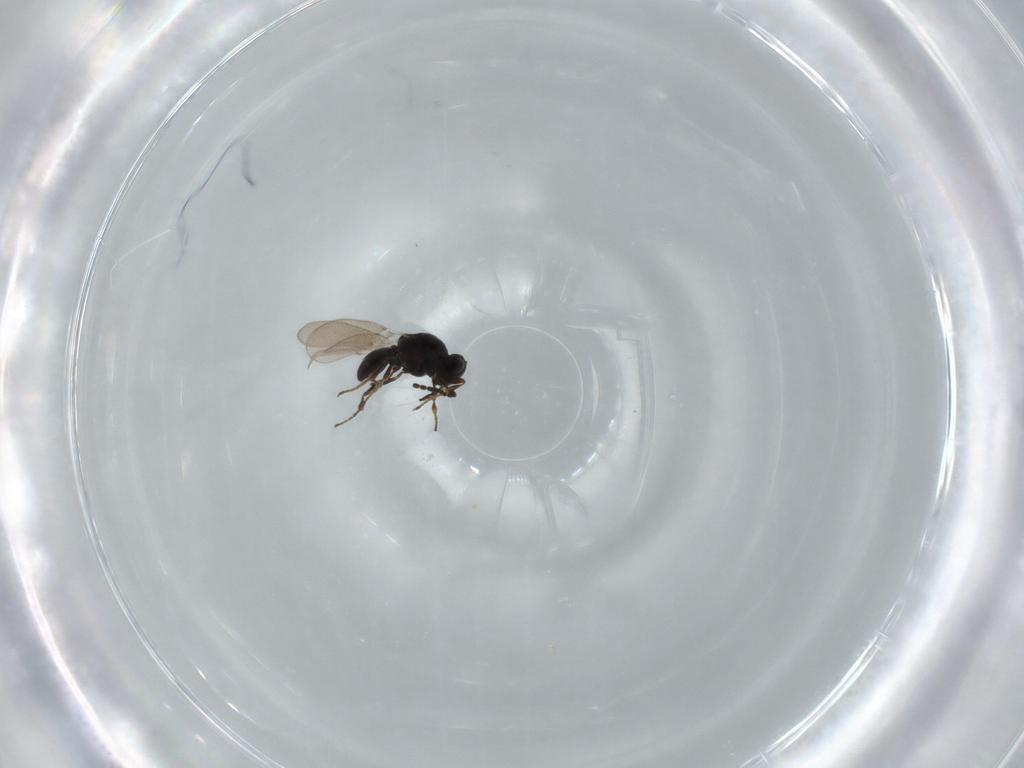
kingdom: Animalia
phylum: Arthropoda
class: Insecta
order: Hymenoptera
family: Platygastridae
